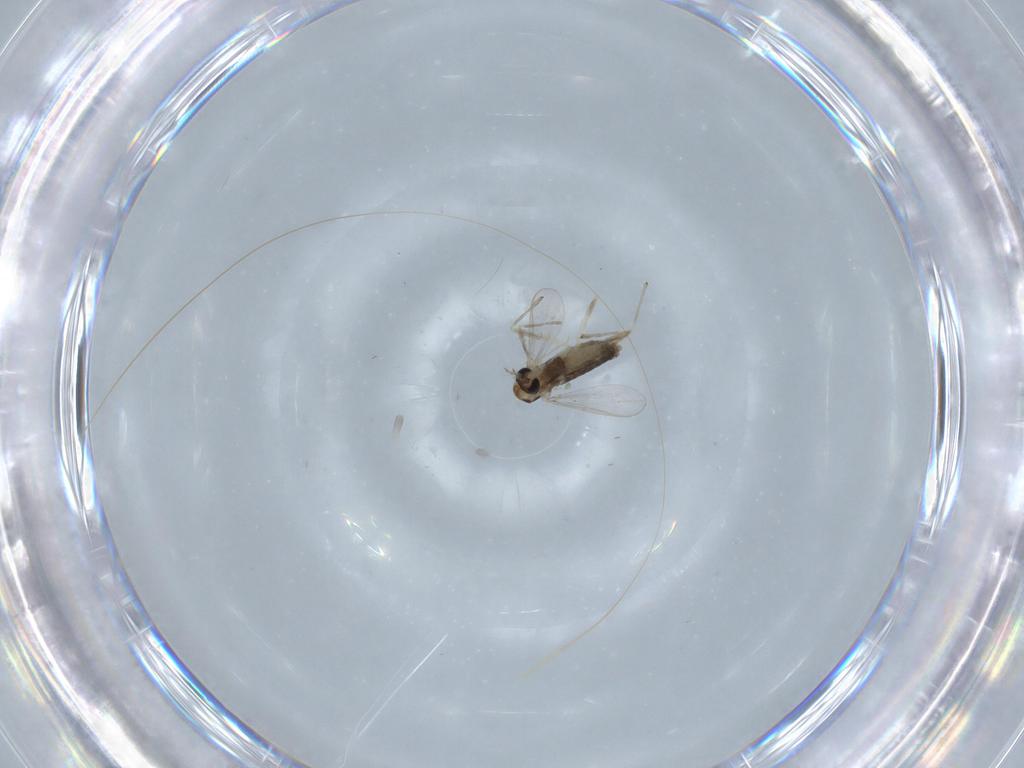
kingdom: Animalia
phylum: Arthropoda
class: Insecta
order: Diptera
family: Chironomidae
